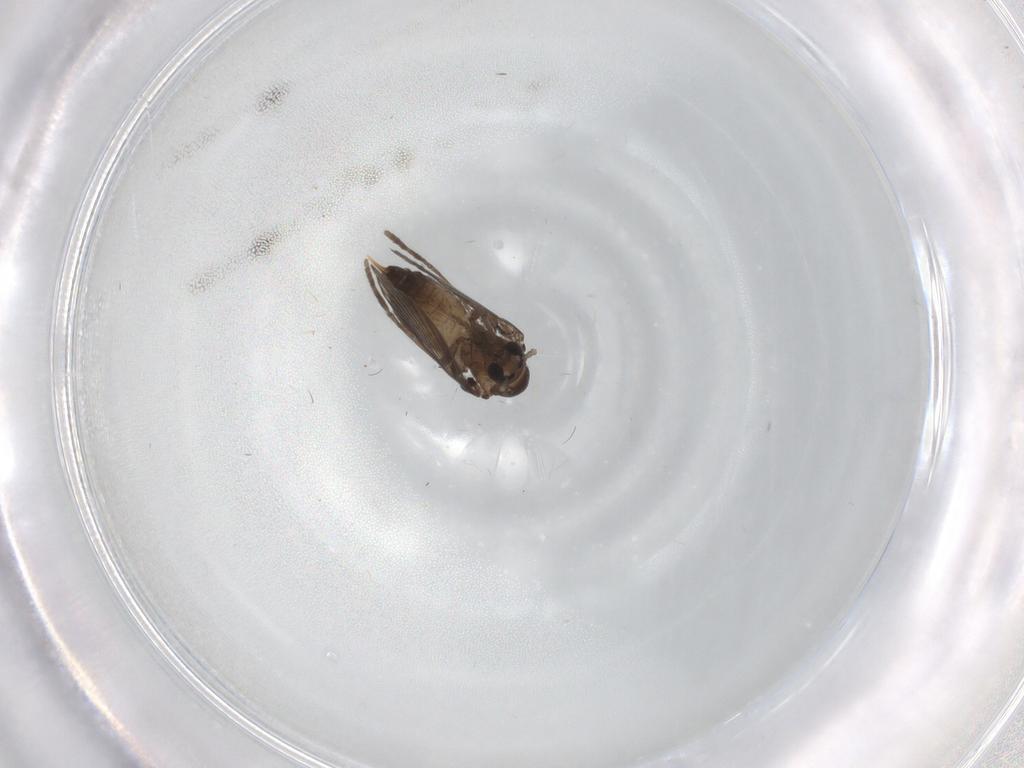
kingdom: Animalia
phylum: Arthropoda
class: Insecta
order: Diptera
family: Psychodidae
